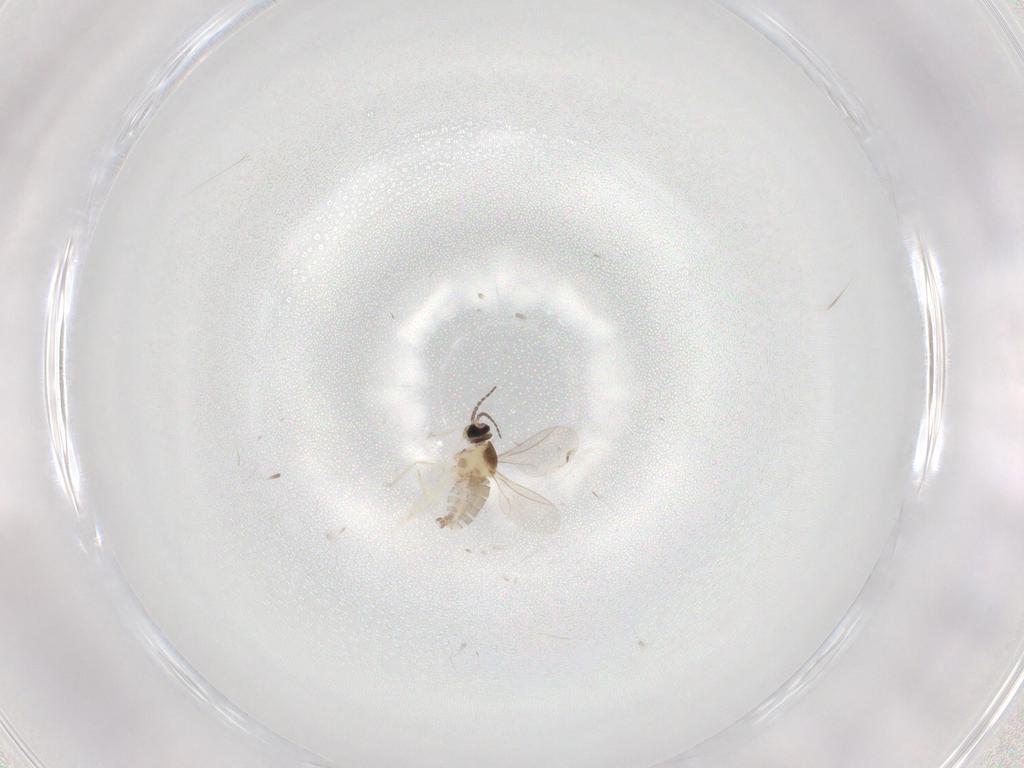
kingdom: Animalia
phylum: Arthropoda
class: Insecta
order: Diptera
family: Cecidomyiidae
